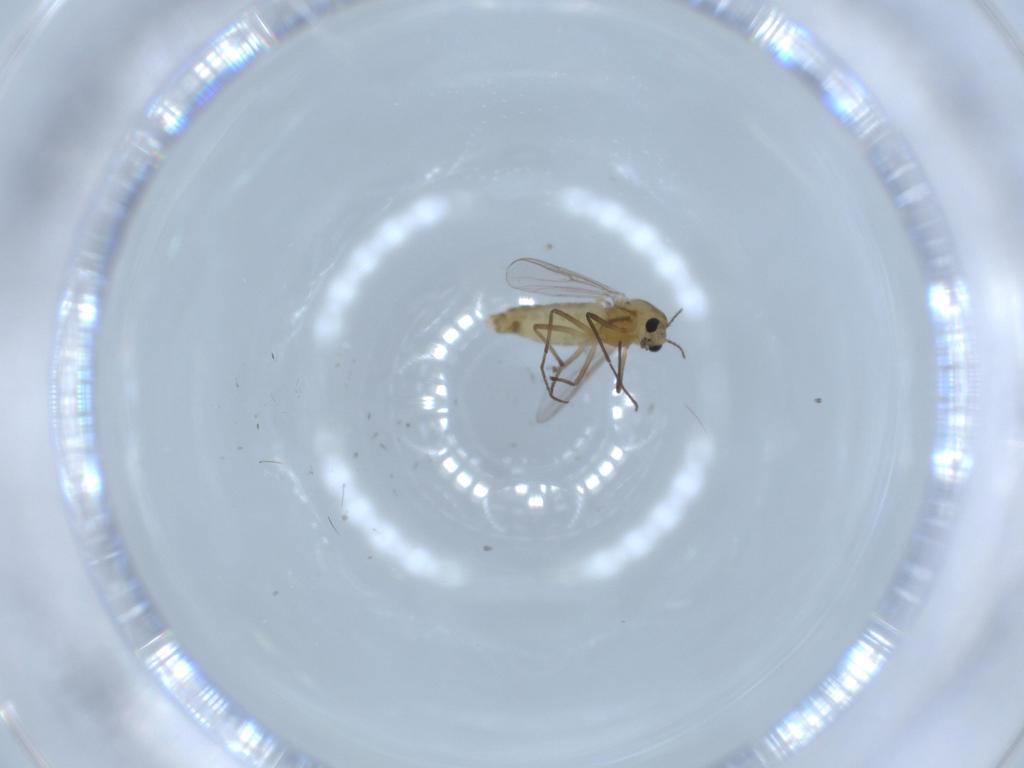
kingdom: Animalia
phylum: Arthropoda
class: Insecta
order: Diptera
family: Chironomidae
